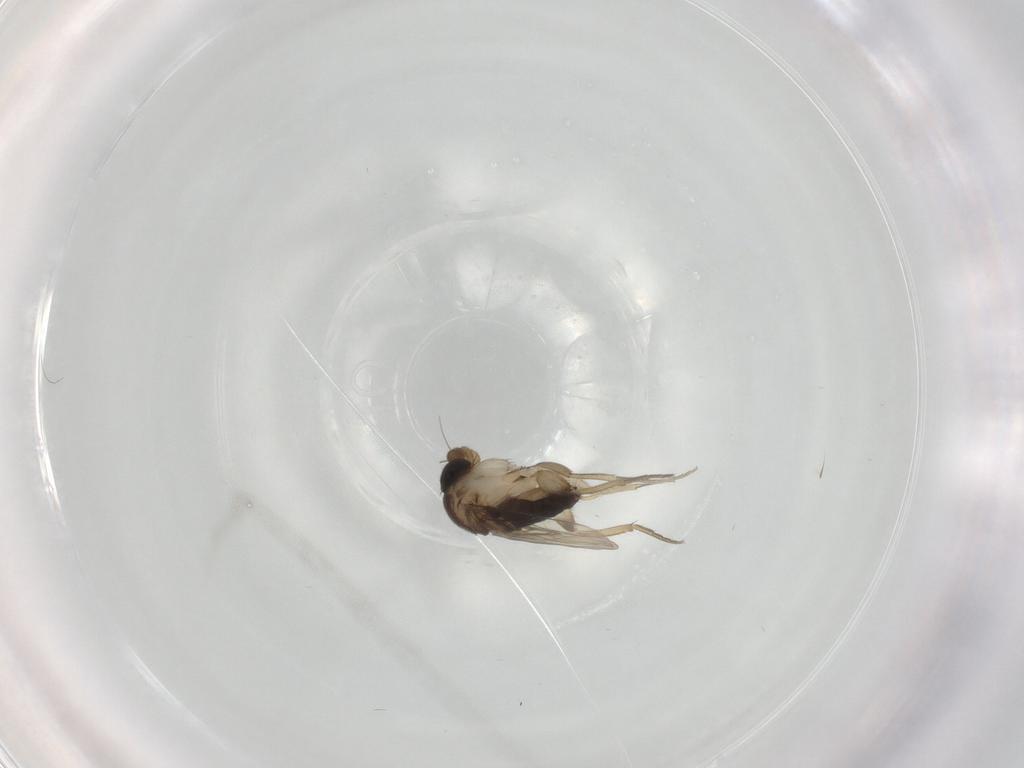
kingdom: Animalia
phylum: Arthropoda
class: Insecta
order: Diptera
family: Phoridae
